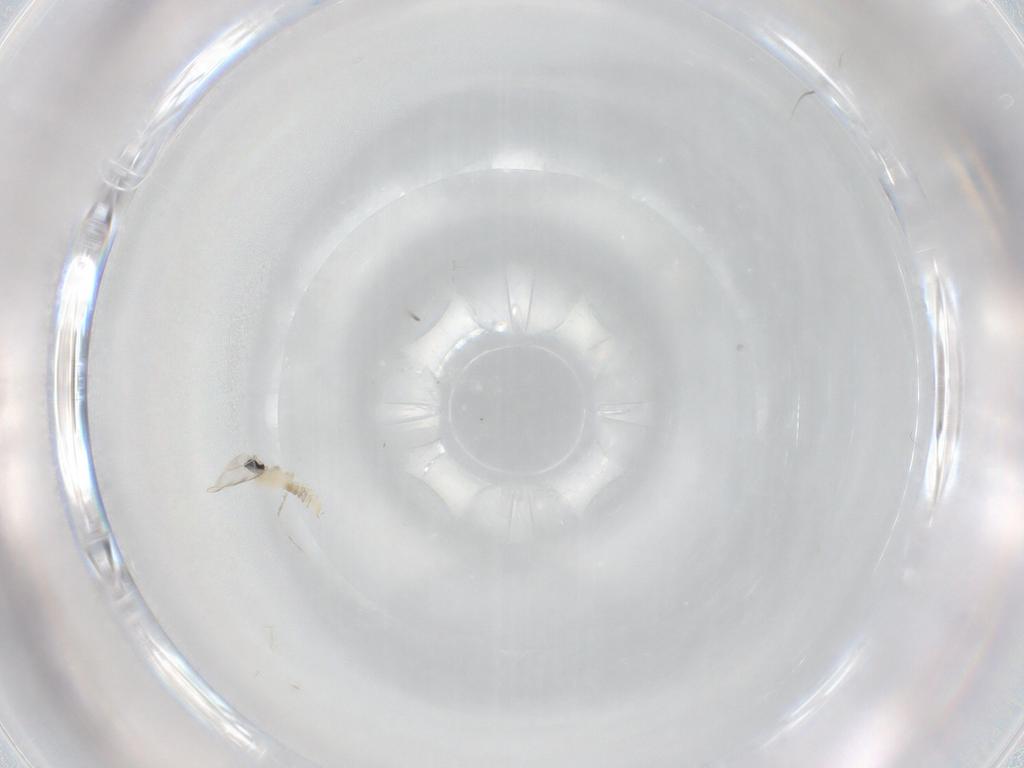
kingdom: Animalia
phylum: Arthropoda
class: Insecta
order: Diptera
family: Cecidomyiidae
